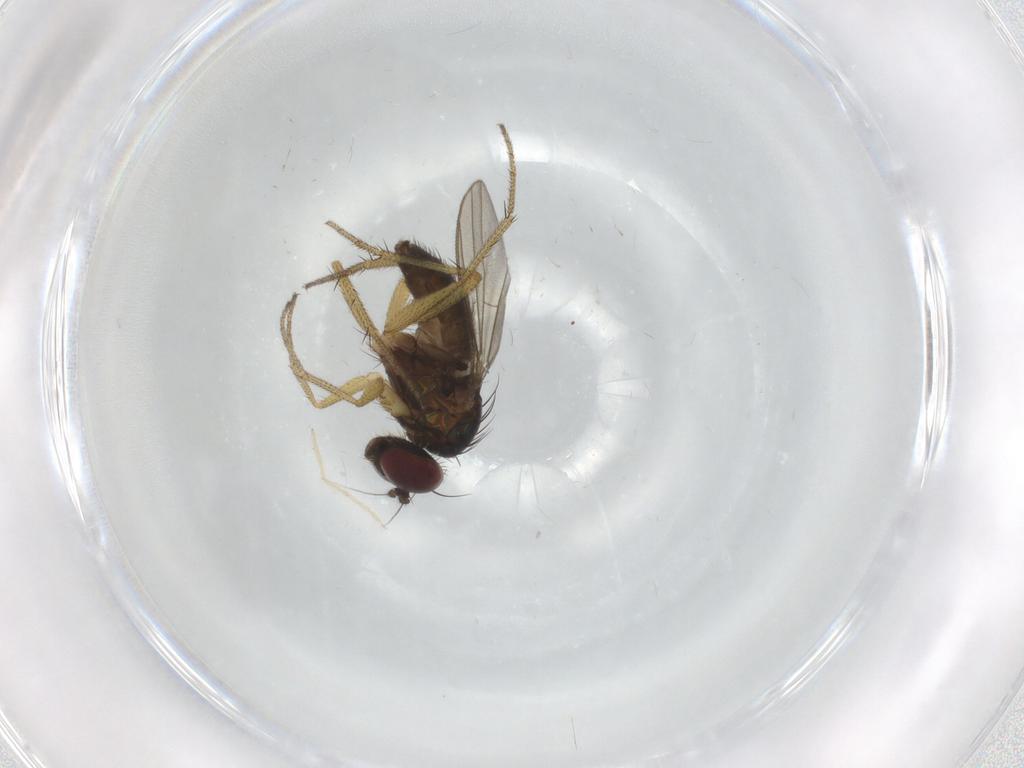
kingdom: Animalia
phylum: Arthropoda
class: Insecta
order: Diptera
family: Chironomidae
